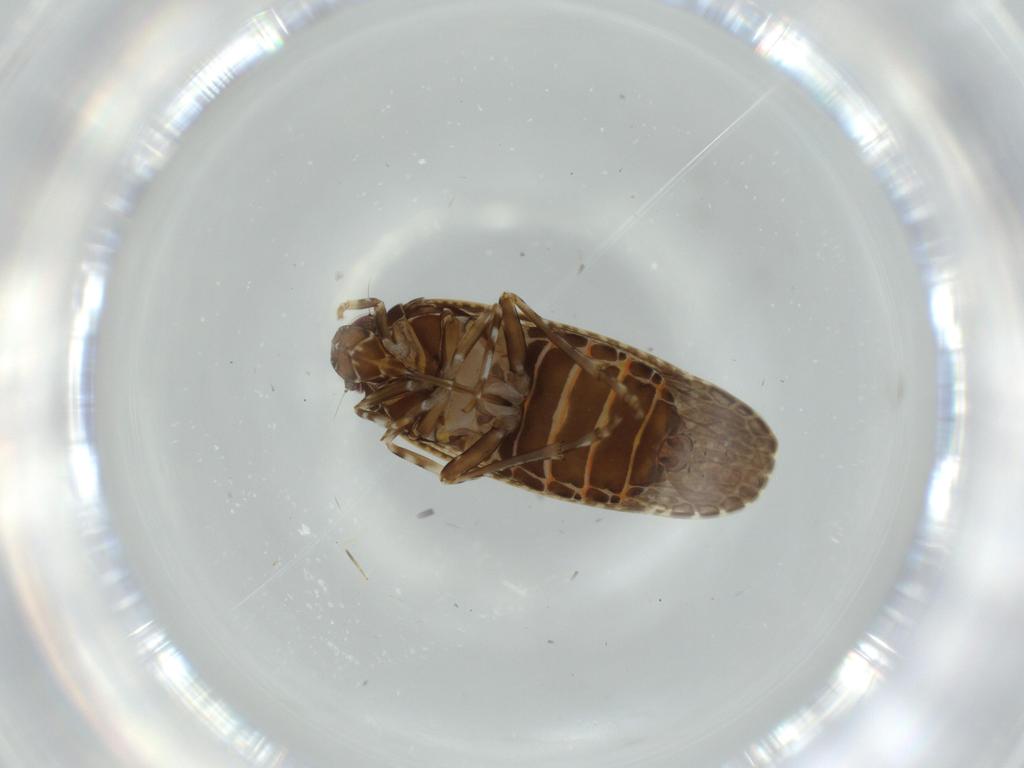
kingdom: Animalia
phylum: Arthropoda
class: Insecta
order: Hemiptera
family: Achilidae
